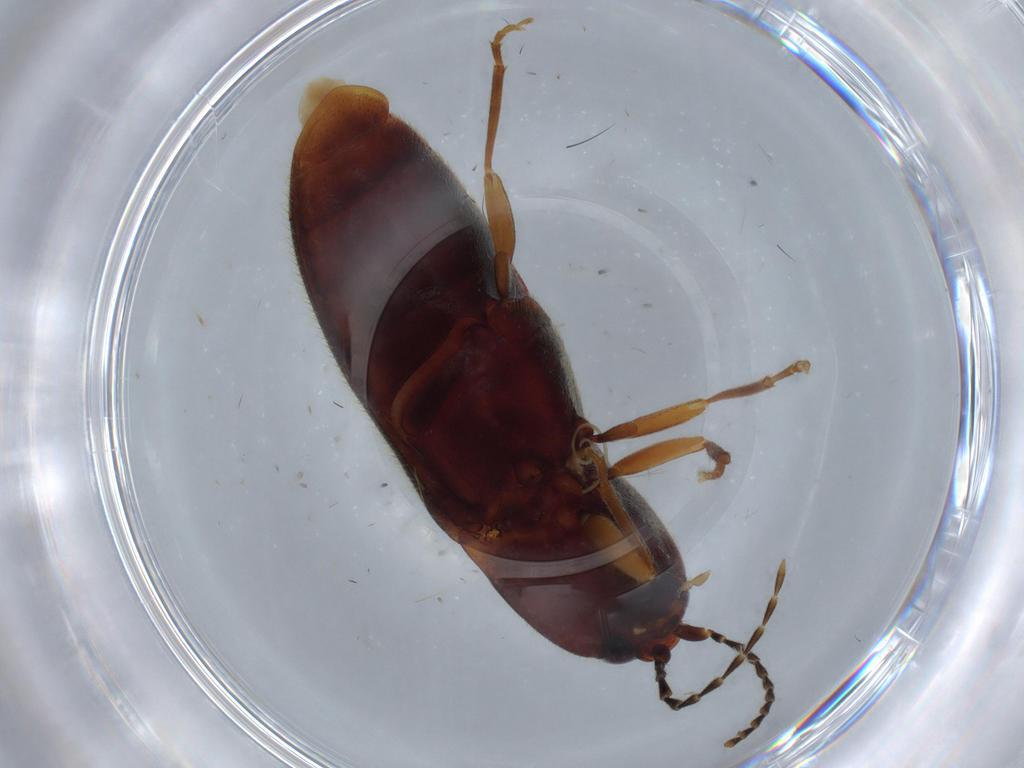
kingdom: Animalia
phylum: Arthropoda
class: Insecta
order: Coleoptera
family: Elateridae
